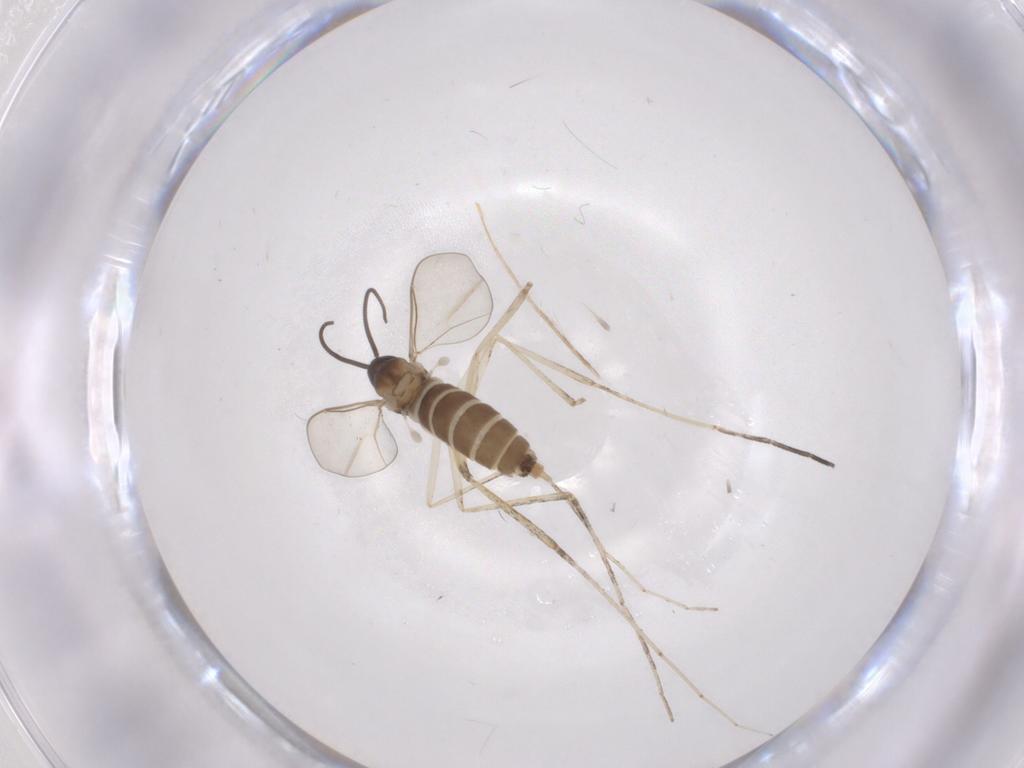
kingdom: Animalia
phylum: Arthropoda
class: Insecta
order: Diptera
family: Cecidomyiidae
